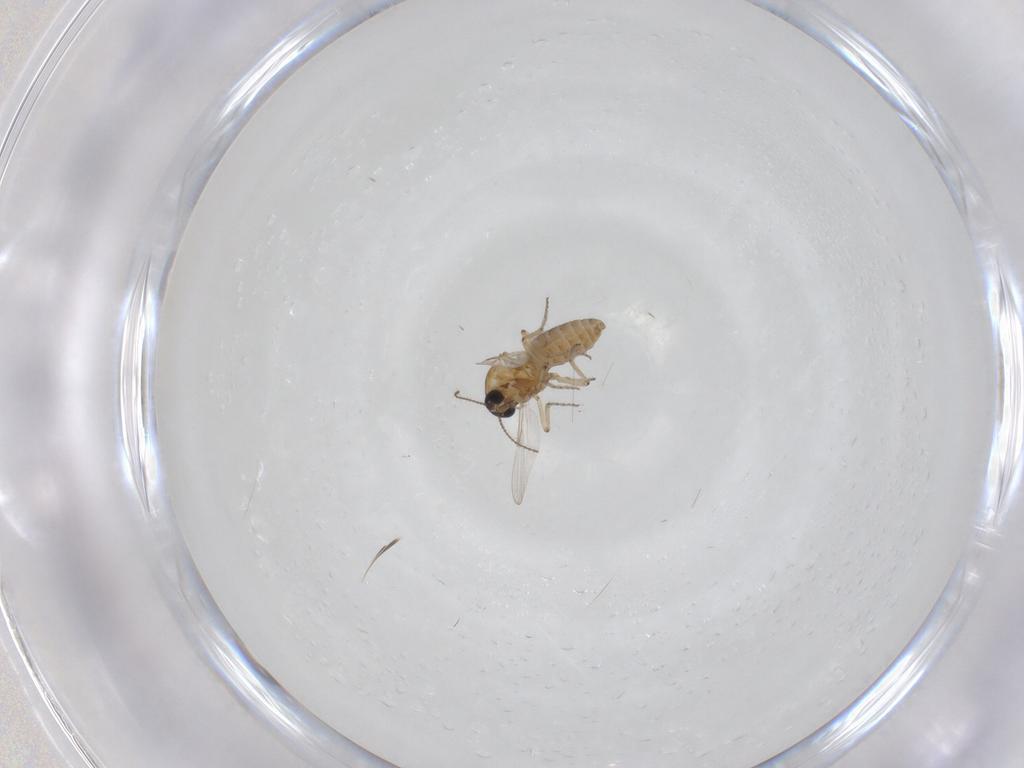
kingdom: Animalia
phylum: Arthropoda
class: Insecta
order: Diptera
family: Ceratopogonidae
